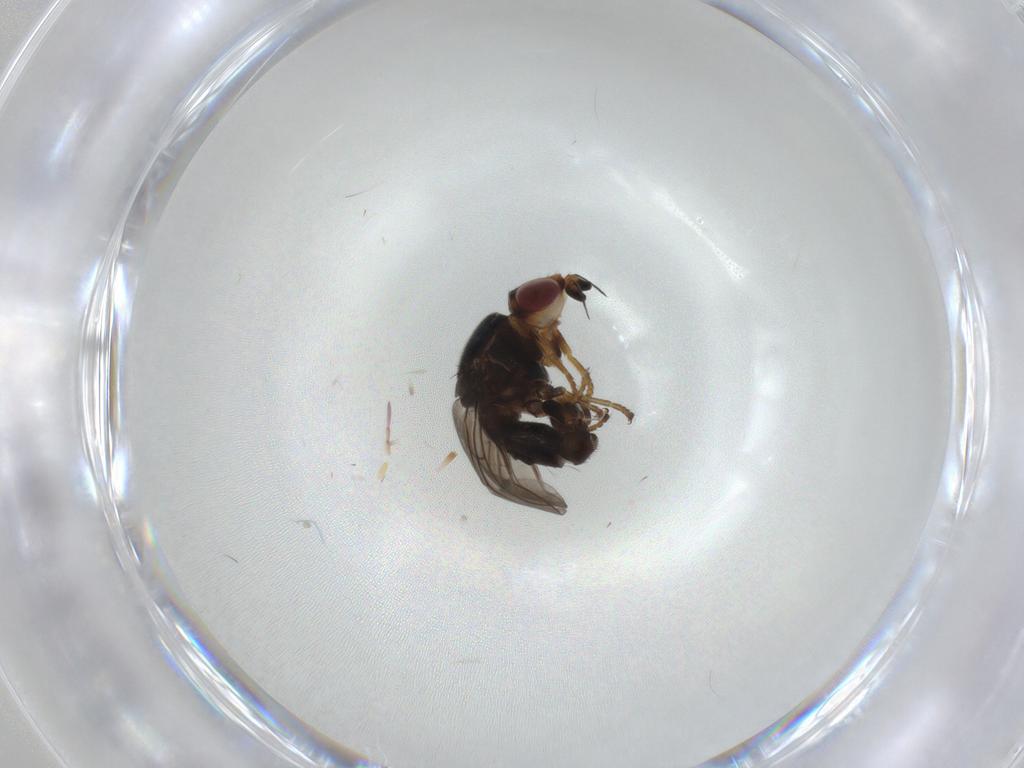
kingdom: Animalia
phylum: Arthropoda
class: Insecta
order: Diptera
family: Chloropidae
